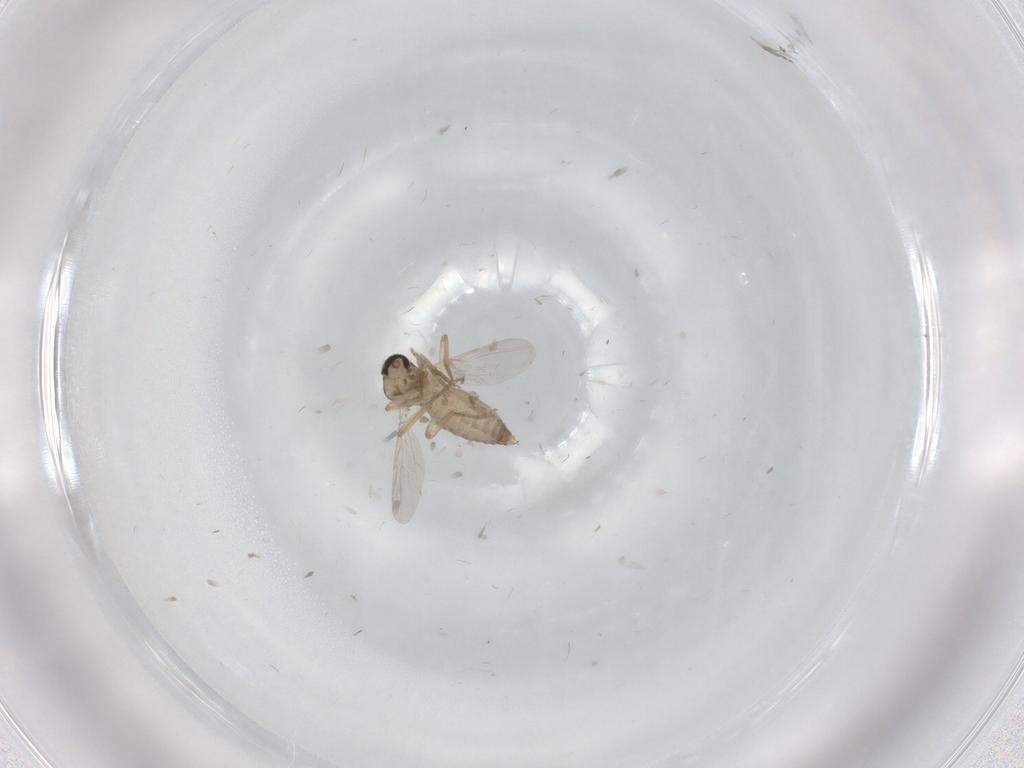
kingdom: Animalia
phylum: Arthropoda
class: Insecta
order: Diptera
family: Ceratopogonidae
